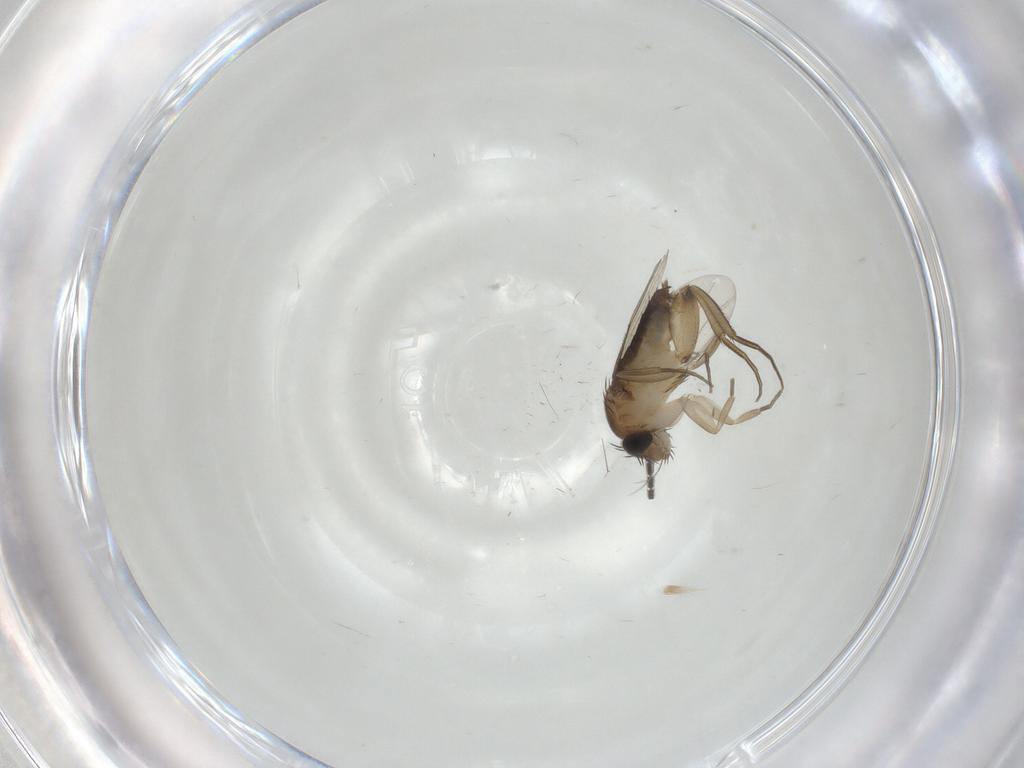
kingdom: Animalia
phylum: Arthropoda
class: Insecta
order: Diptera
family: Phoridae
